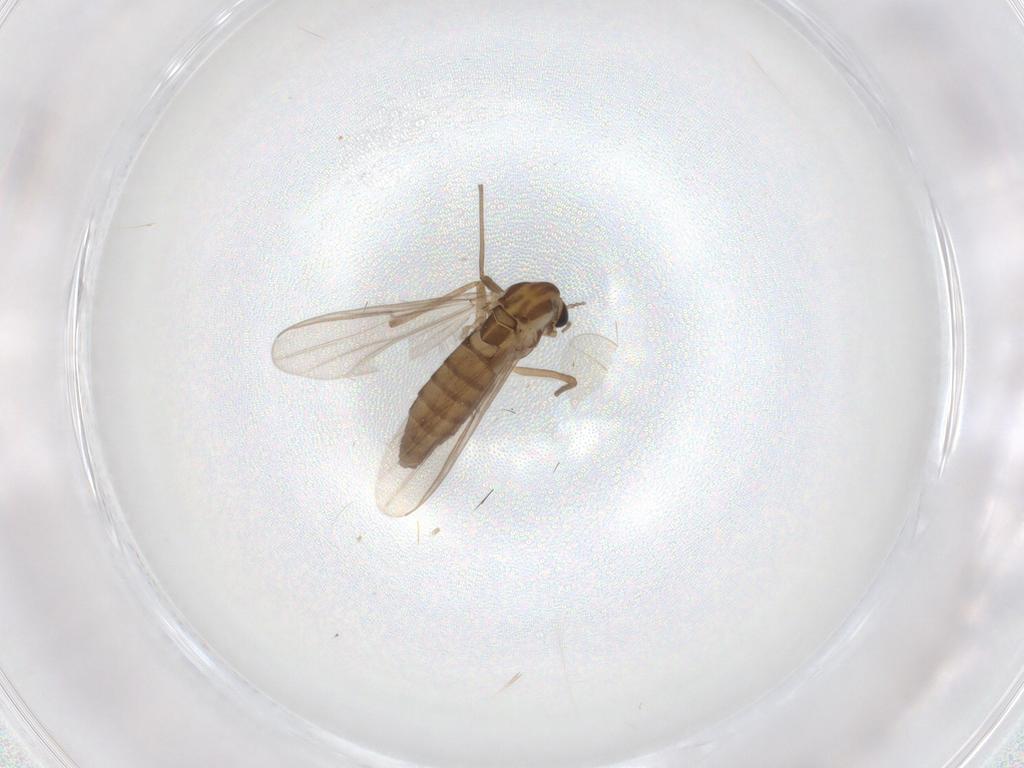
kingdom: Animalia
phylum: Arthropoda
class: Insecta
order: Diptera
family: Chironomidae
